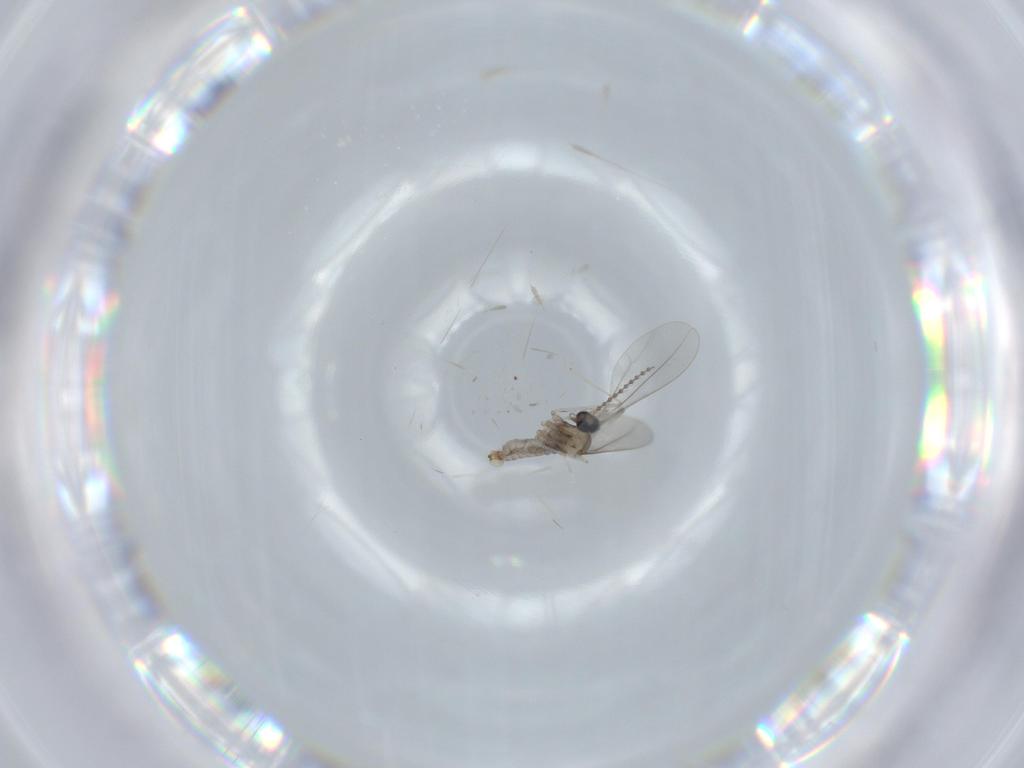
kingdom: Animalia
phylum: Arthropoda
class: Insecta
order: Diptera
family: Cecidomyiidae
